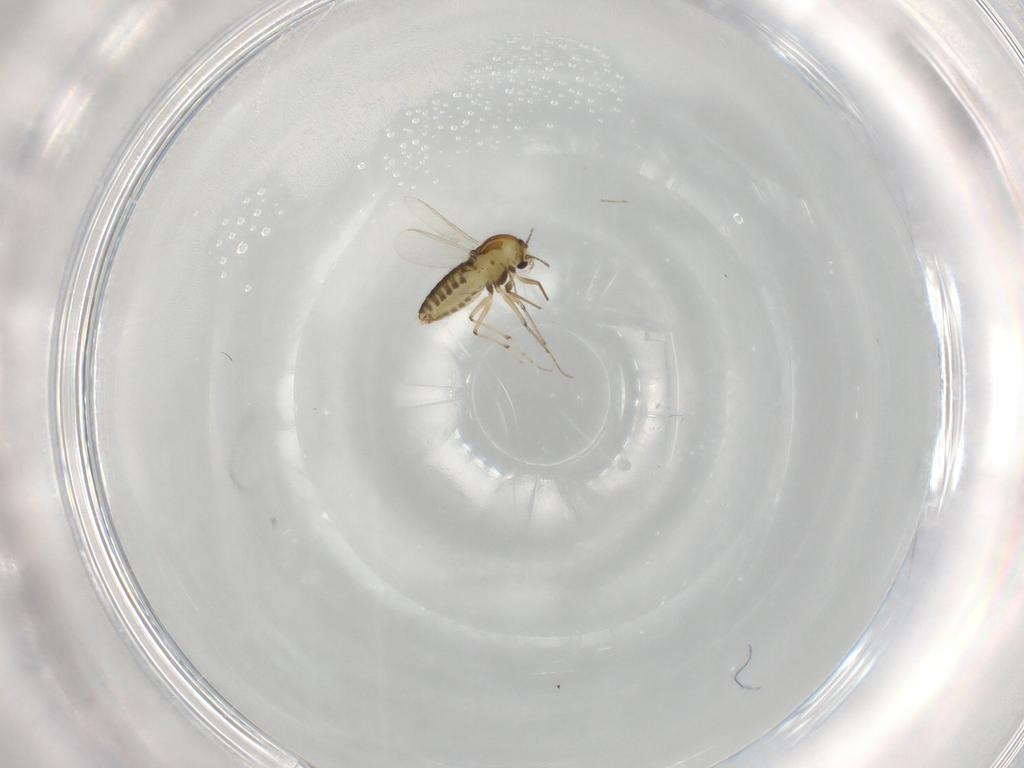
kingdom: Animalia
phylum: Arthropoda
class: Insecta
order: Diptera
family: Chironomidae
